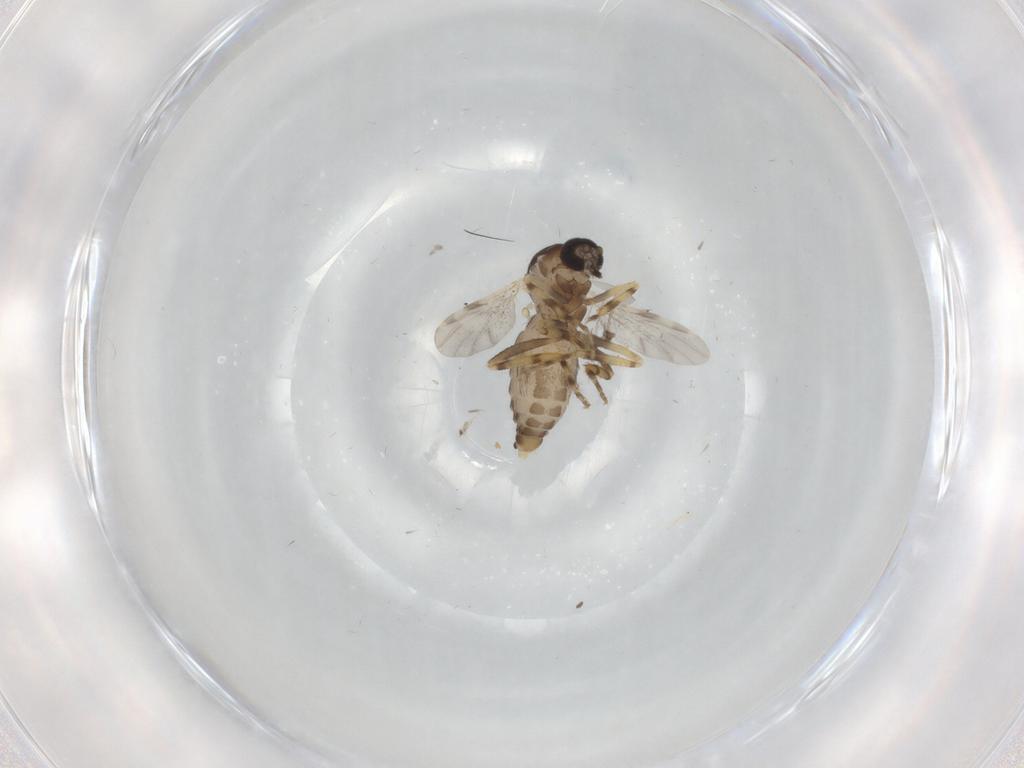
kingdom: Animalia
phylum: Arthropoda
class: Insecta
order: Diptera
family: Ceratopogonidae
